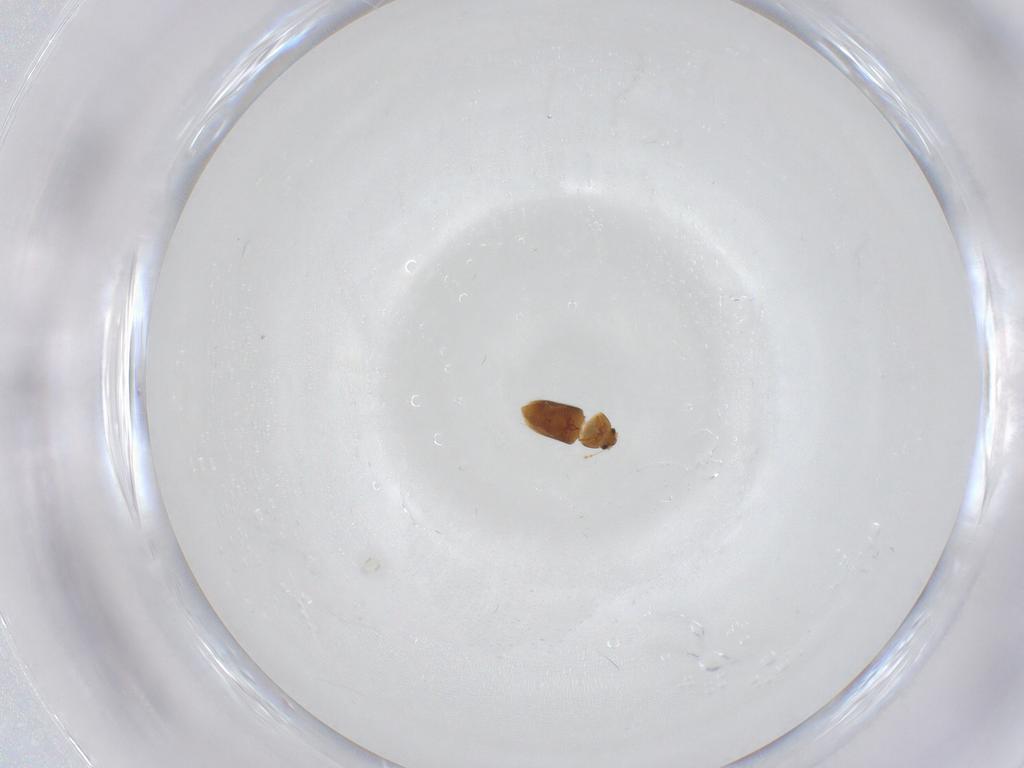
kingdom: Animalia
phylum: Arthropoda
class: Insecta
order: Coleoptera
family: Ptiliidae
